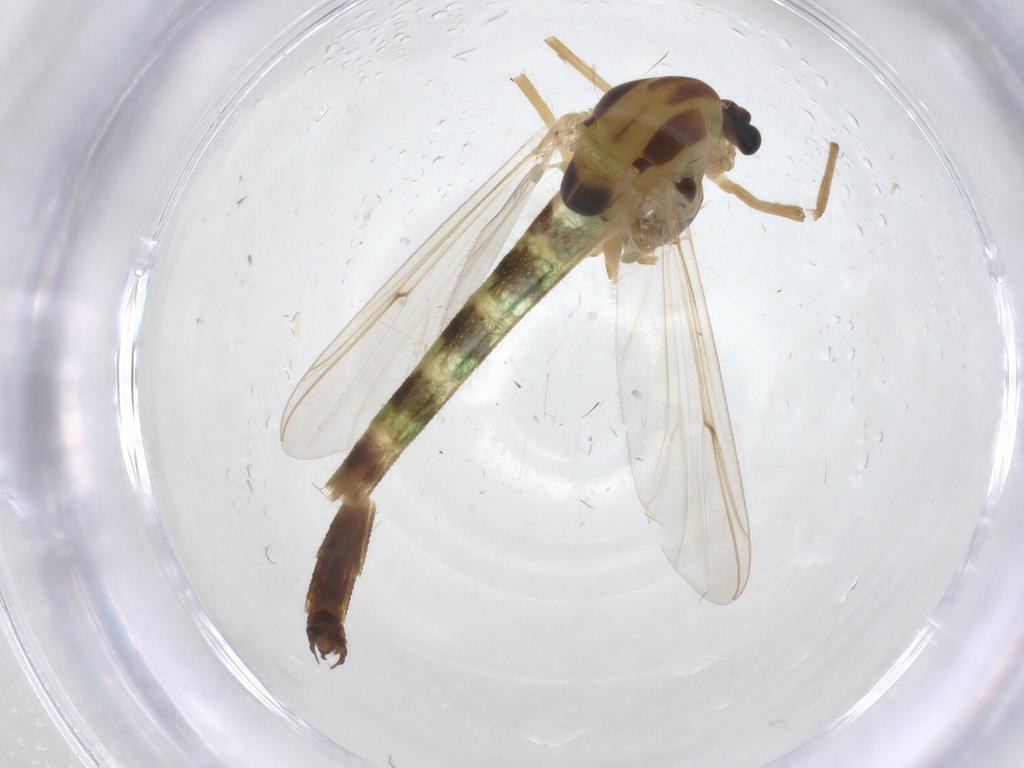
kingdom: Animalia
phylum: Arthropoda
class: Insecta
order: Diptera
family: Chironomidae
